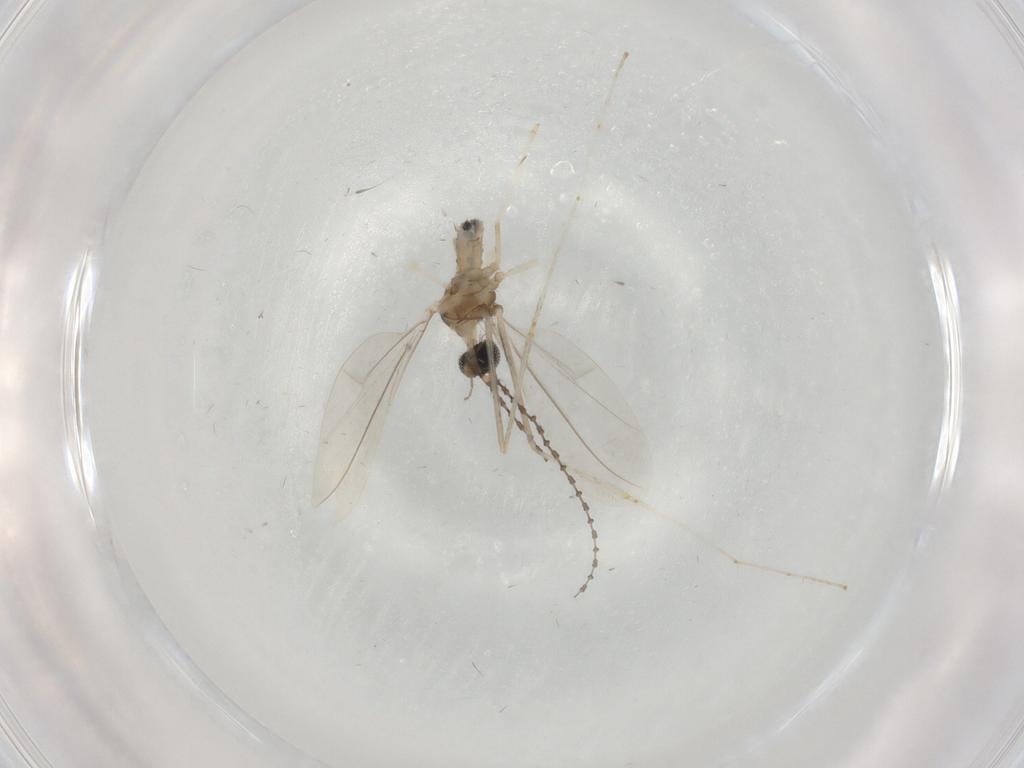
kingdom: Animalia
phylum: Arthropoda
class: Insecta
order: Diptera
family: Cecidomyiidae
